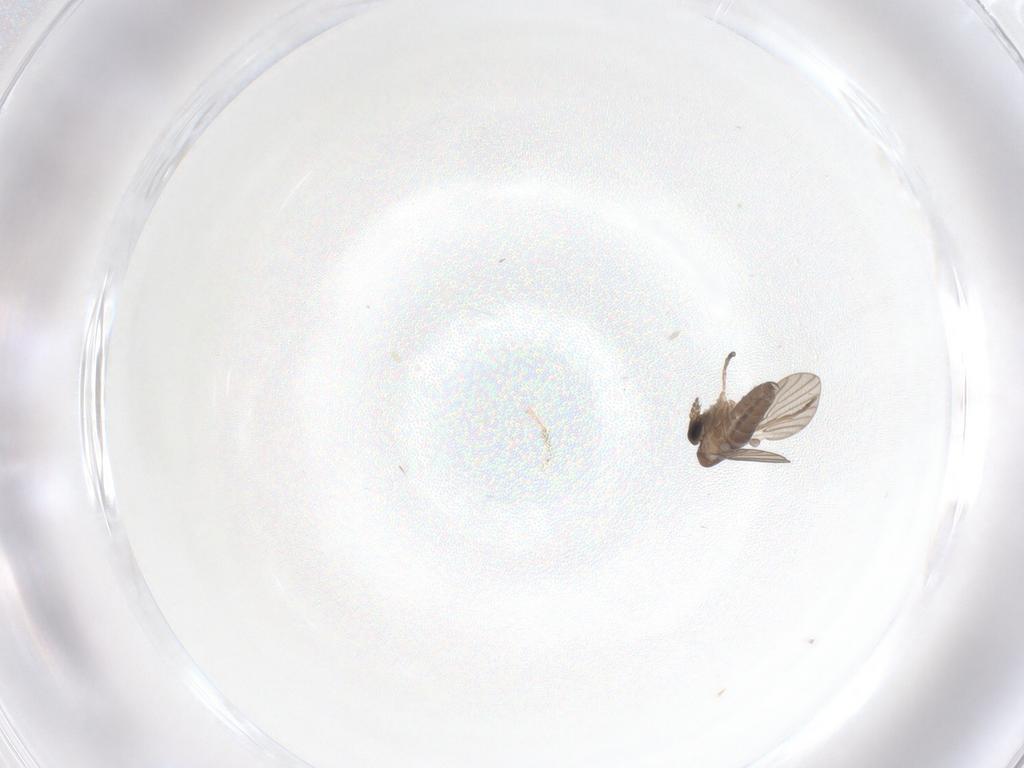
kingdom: Animalia
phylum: Arthropoda
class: Insecta
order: Diptera
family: Phoridae
